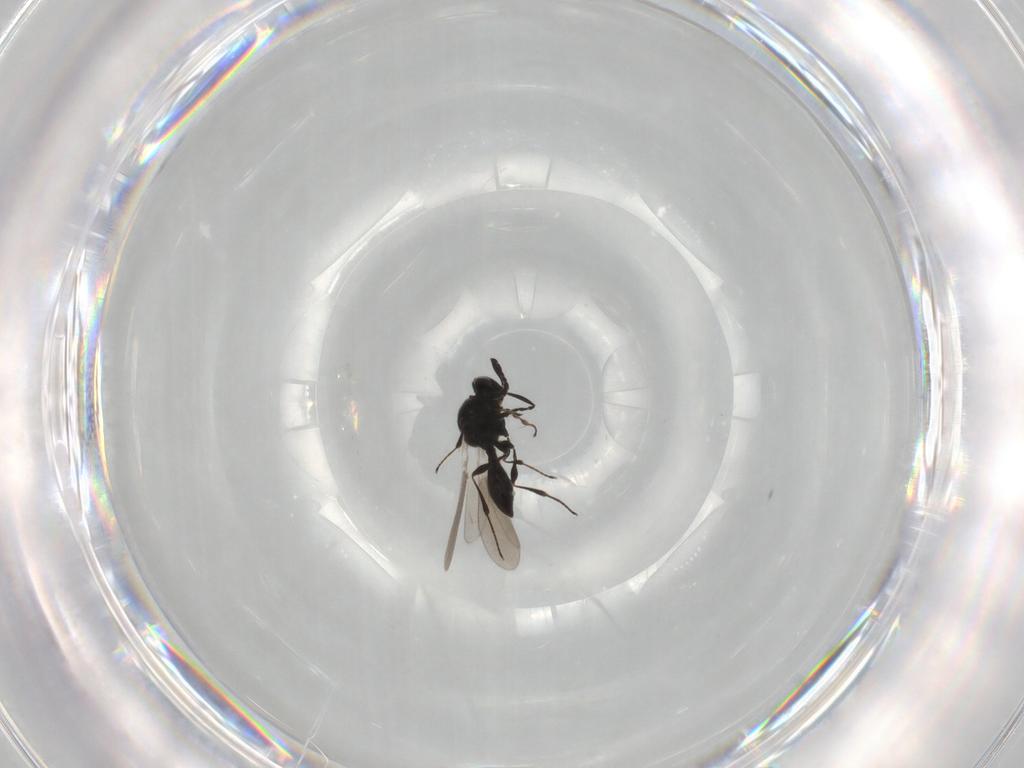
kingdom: Animalia
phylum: Arthropoda
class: Insecta
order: Hymenoptera
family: Platygastridae
